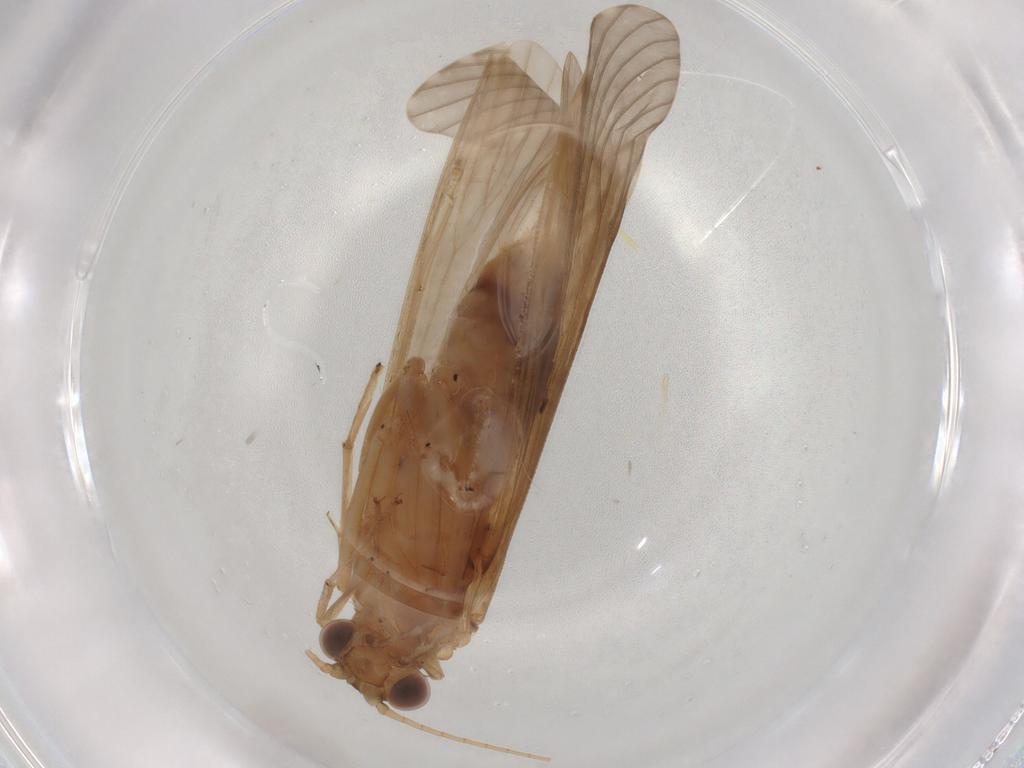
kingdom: Animalia
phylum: Arthropoda
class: Insecta
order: Trichoptera
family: Hydropsychidae
